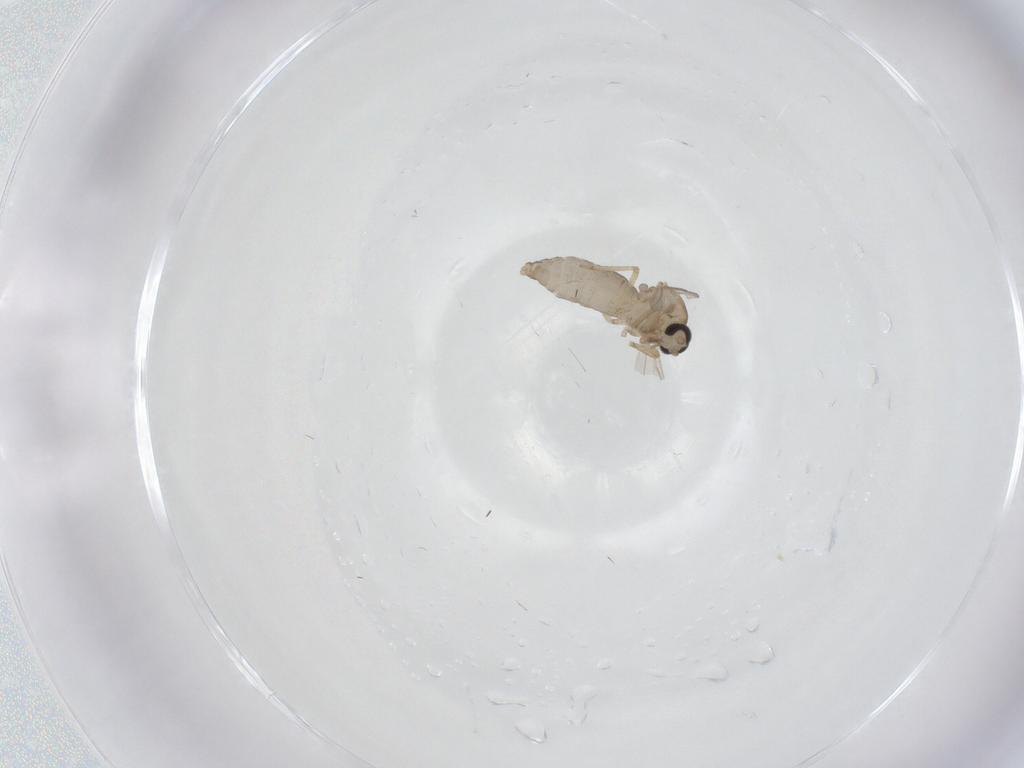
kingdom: Animalia
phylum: Arthropoda
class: Insecta
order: Diptera
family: Ceratopogonidae
